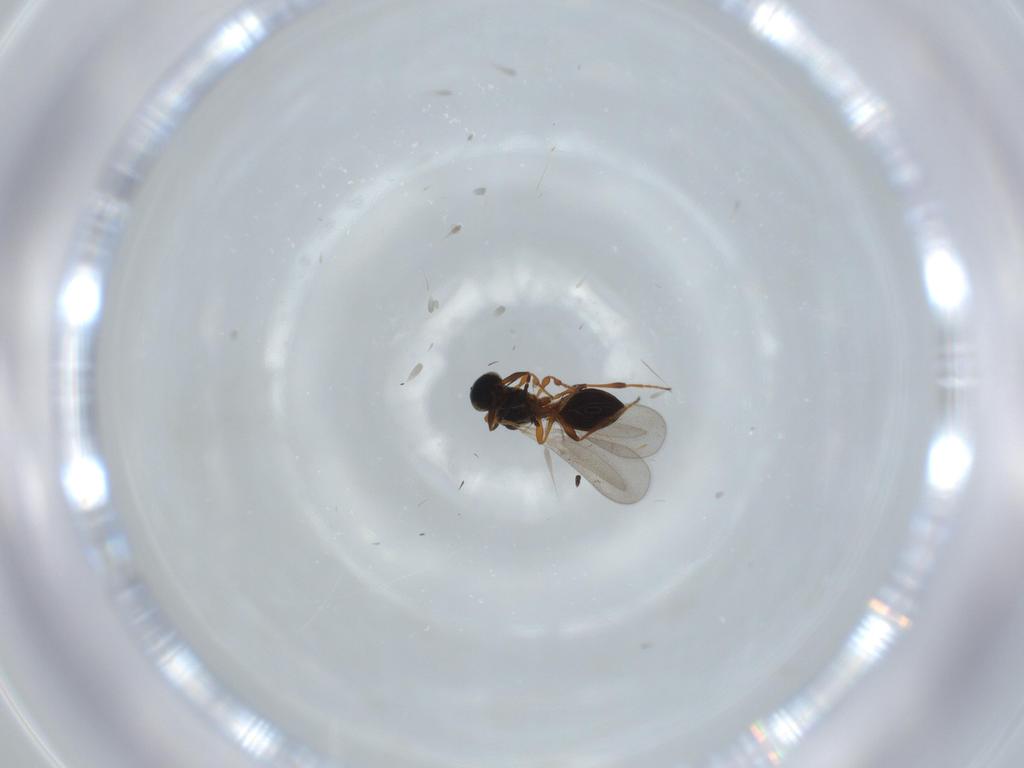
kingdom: Animalia
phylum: Arthropoda
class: Insecta
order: Hymenoptera
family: Platygastridae
